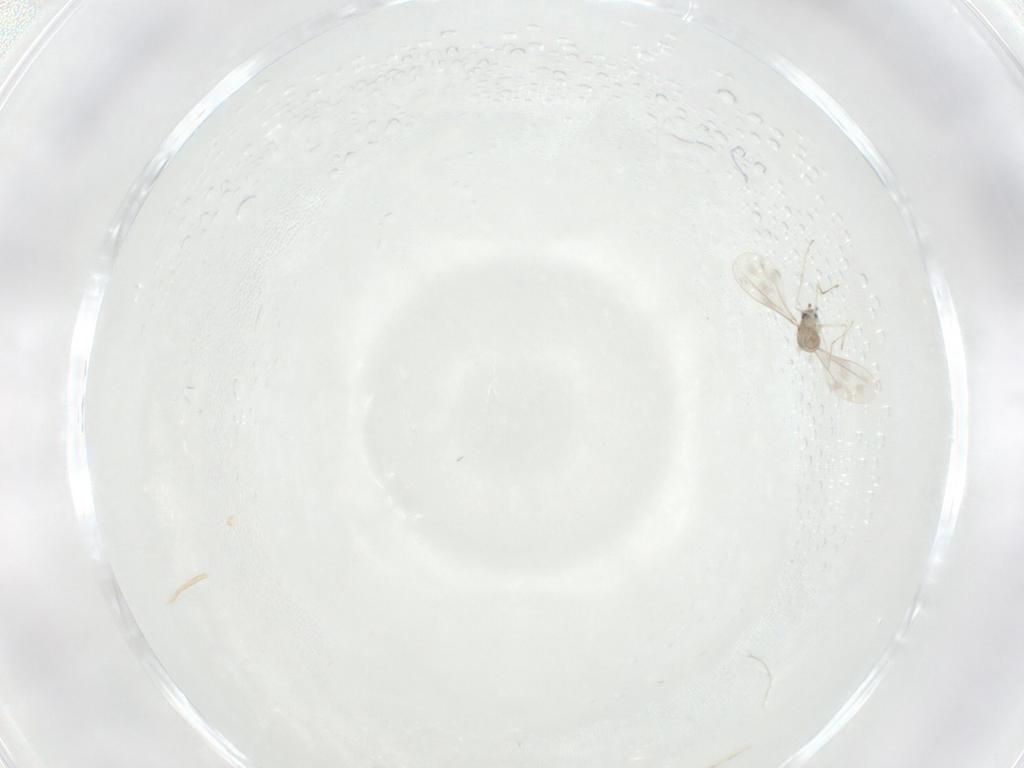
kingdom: Animalia
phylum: Arthropoda
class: Insecta
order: Diptera
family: Cecidomyiidae
